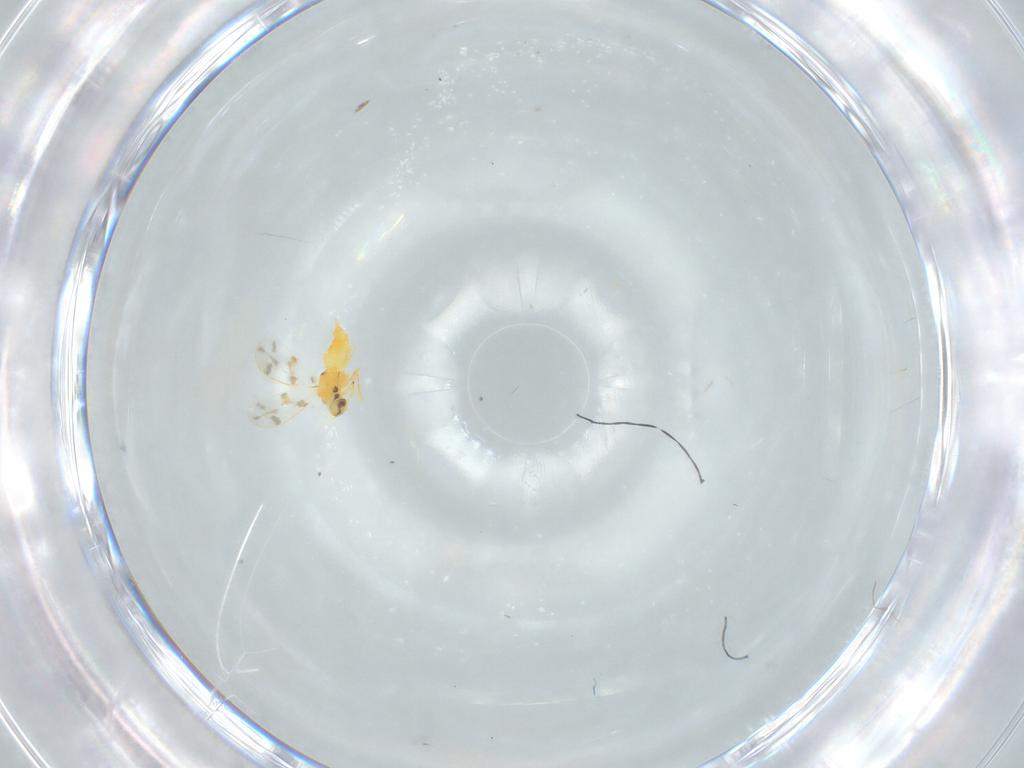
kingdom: Animalia
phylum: Arthropoda
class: Insecta
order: Hemiptera
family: Aleyrodidae
